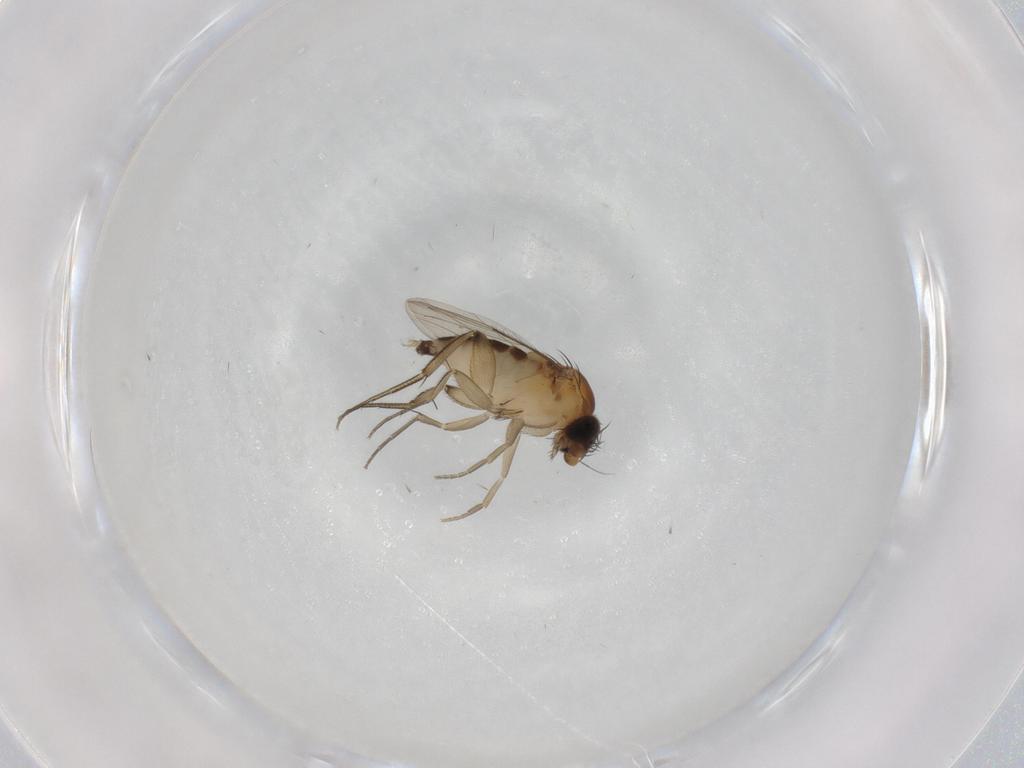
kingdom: Animalia
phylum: Arthropoda
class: Insecta
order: Diptera
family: Phoridae
